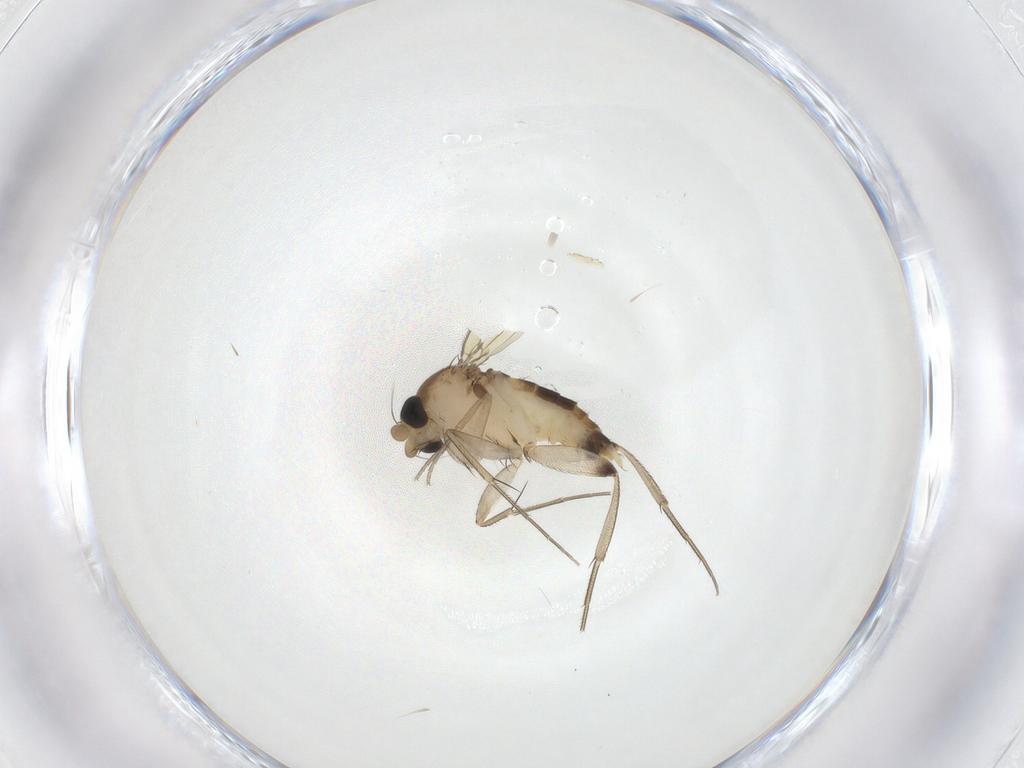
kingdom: Animalia
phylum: Arthropoda
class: Insecta
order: Diptera
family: Phoridae
